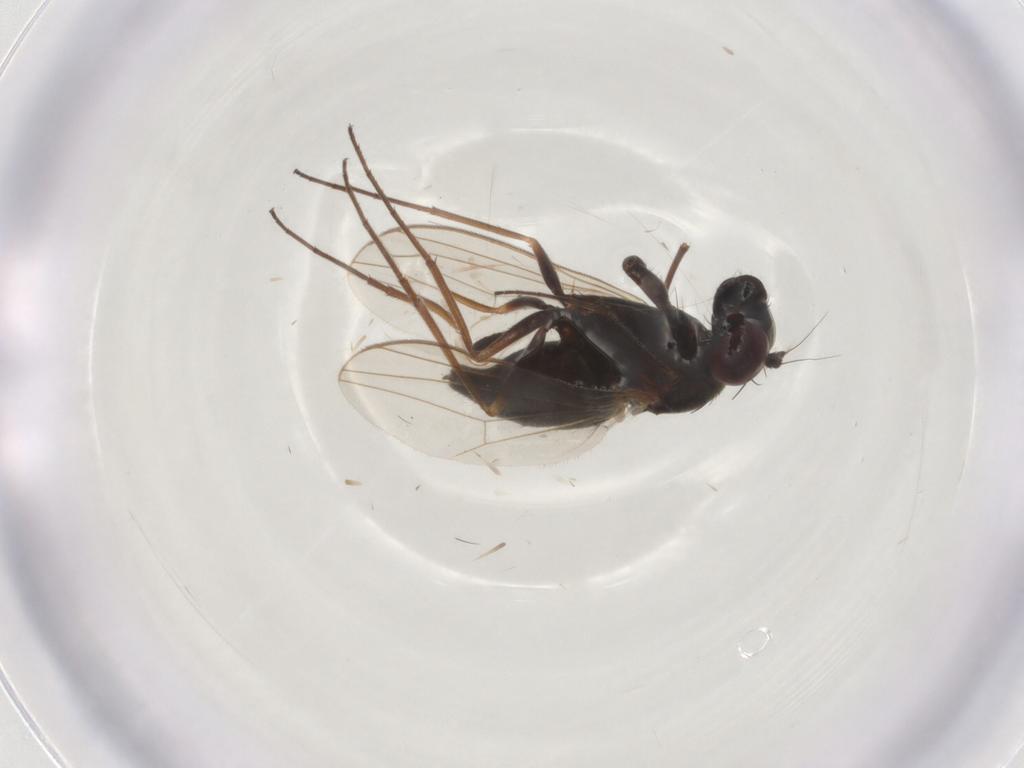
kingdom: Animalia
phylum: Arthropoda
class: Insecta
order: Diptera
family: Dolichopodidae
